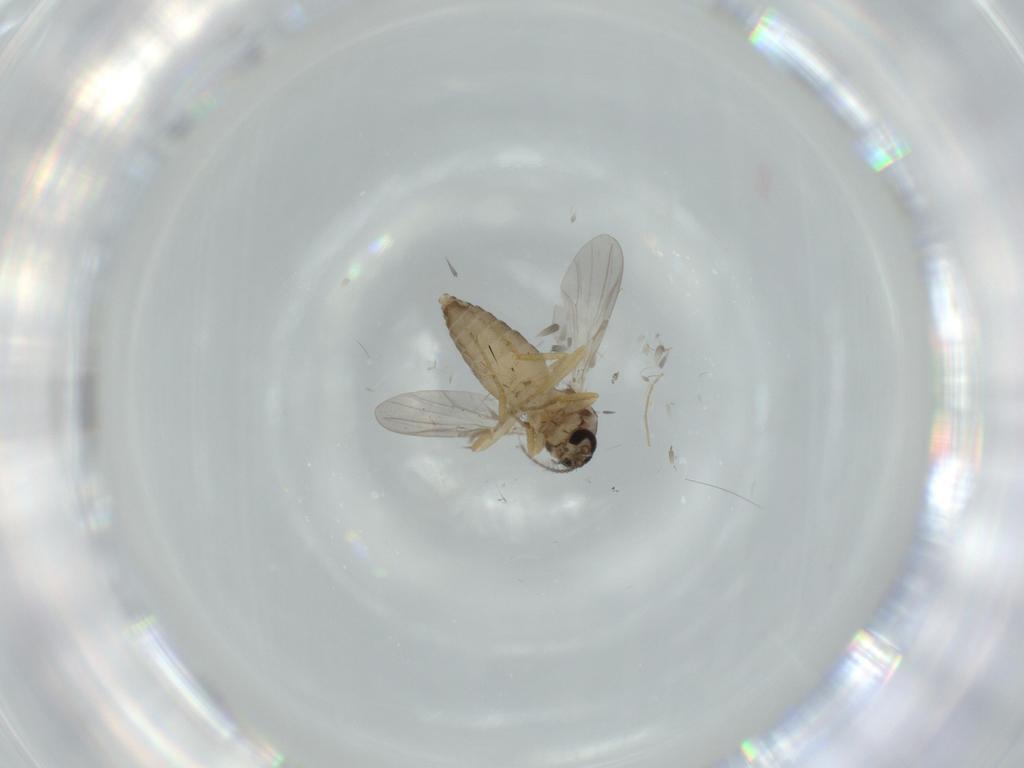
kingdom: Animalia
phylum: Arthropoda
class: Insecta
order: Diptera
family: Ceratopogonidae
